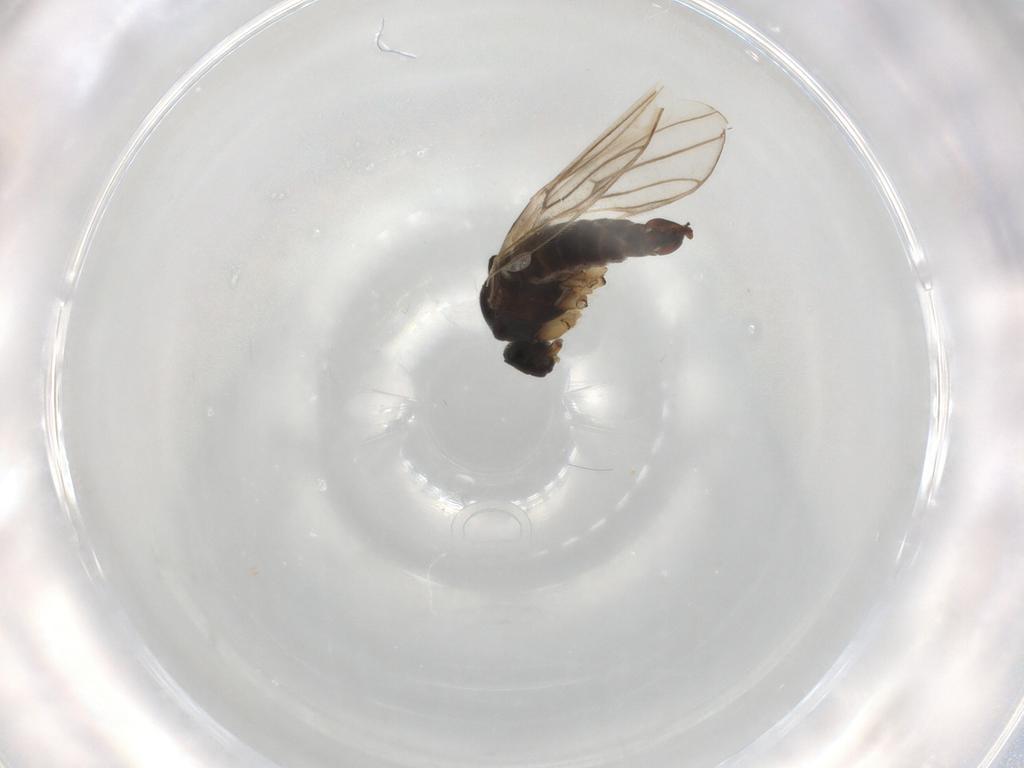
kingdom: Animalia
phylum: Arthropoda
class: Insecta
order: Diptera
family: Hybotidae
